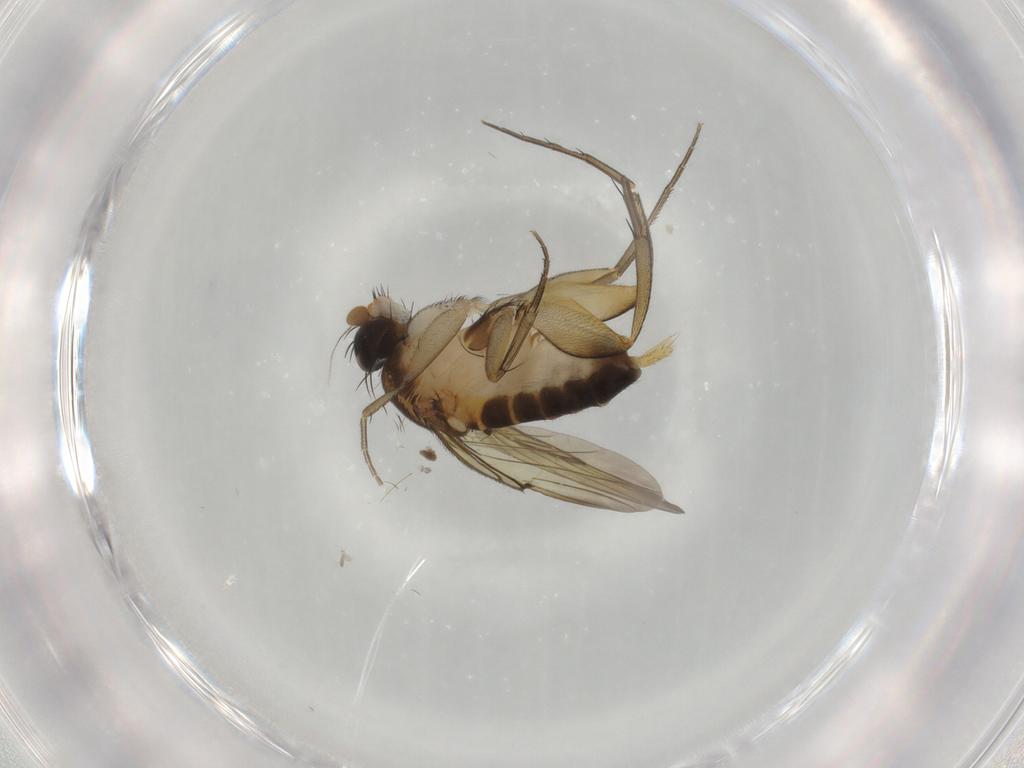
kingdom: Animalia
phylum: Arthropoda
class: Insecta
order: Diptera
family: Phoridae
